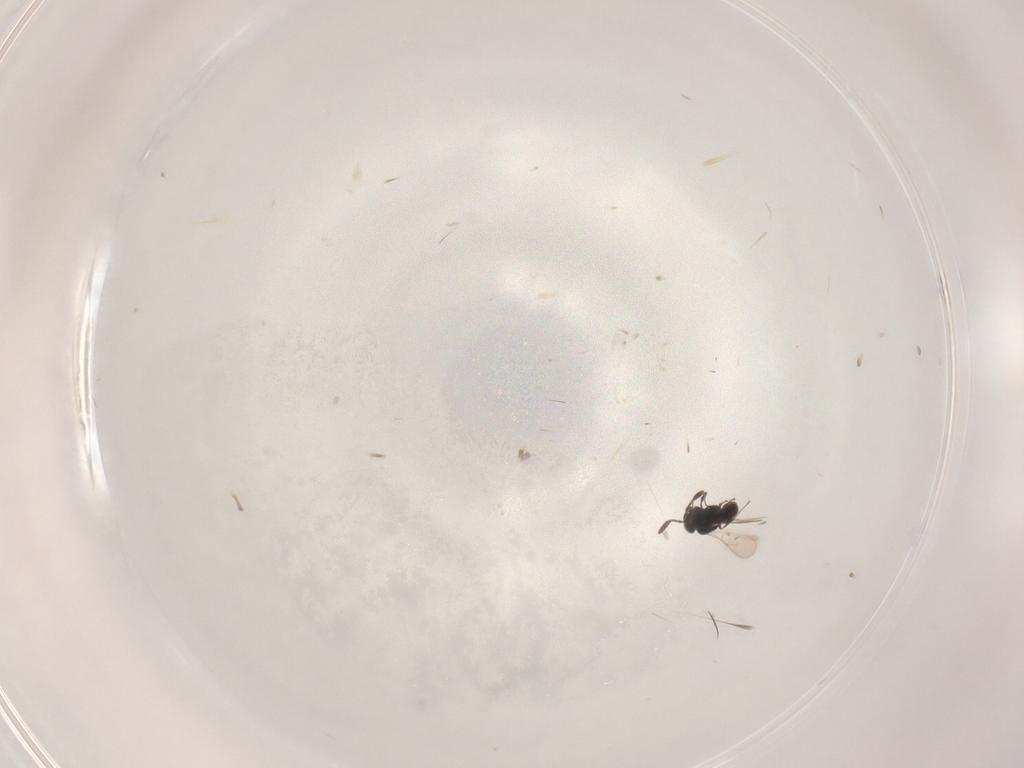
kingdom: Animalia
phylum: Arthropoda
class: Insecta
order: Hymenoptera
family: Scelionidae
